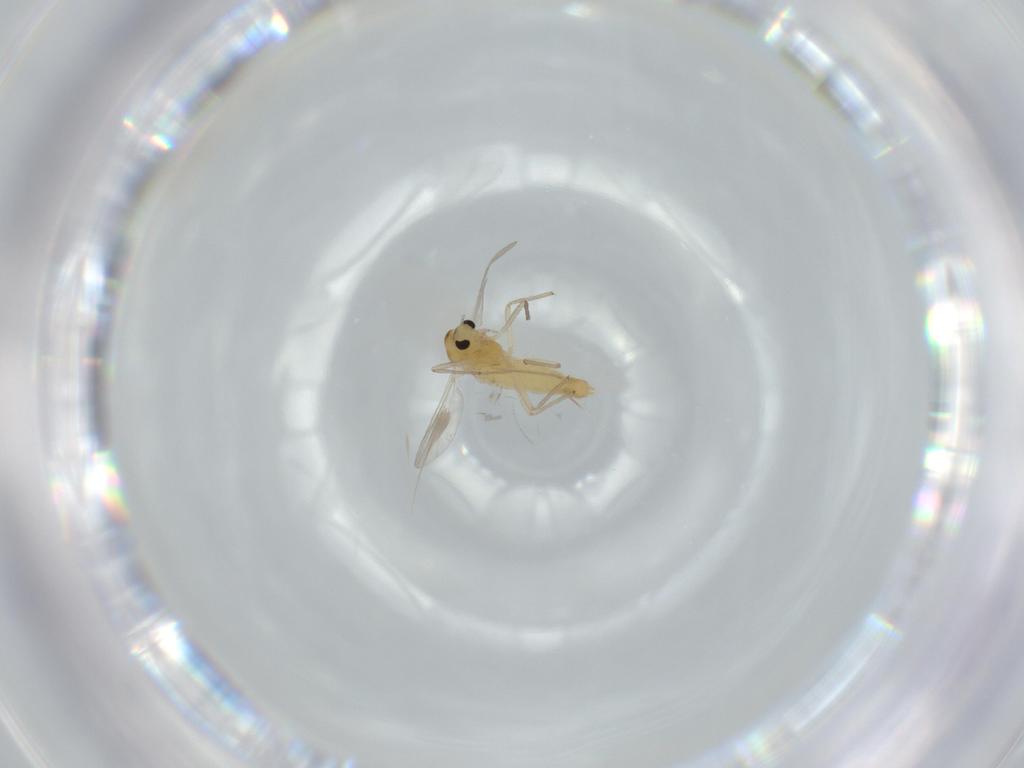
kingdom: Animalia
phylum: Arthropoda
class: Insecta
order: Diptera
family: Chironomidae
